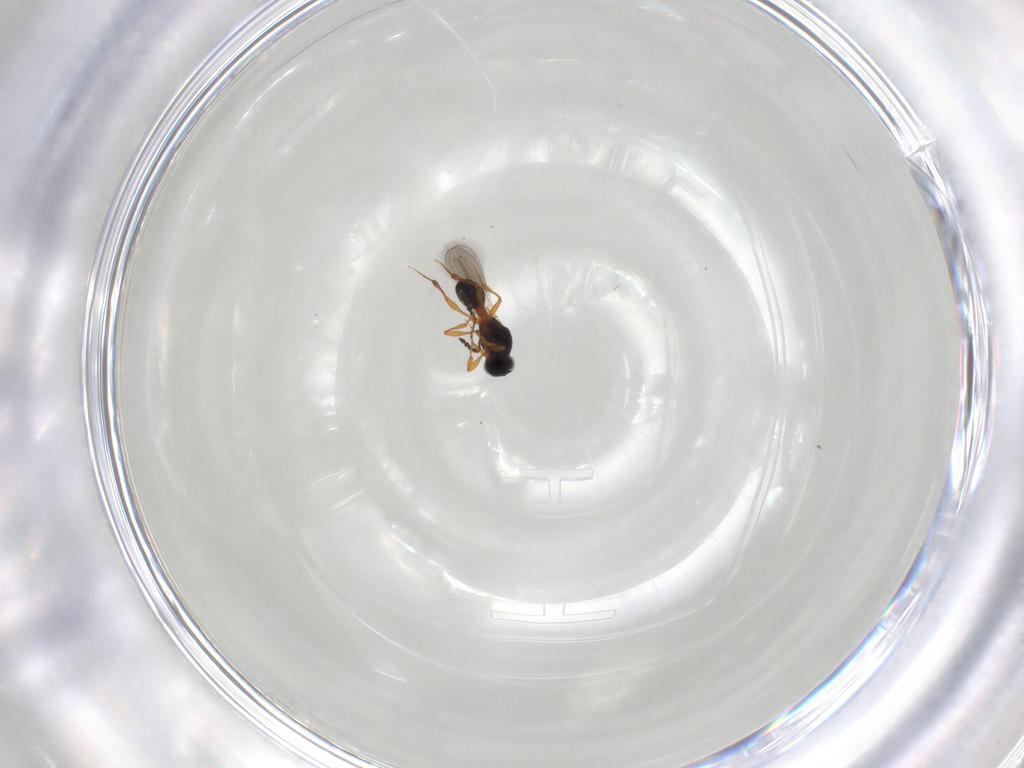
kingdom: Animalia
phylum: Arthropoda
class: Insecta
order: Hymenoptera
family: Platygastridae
